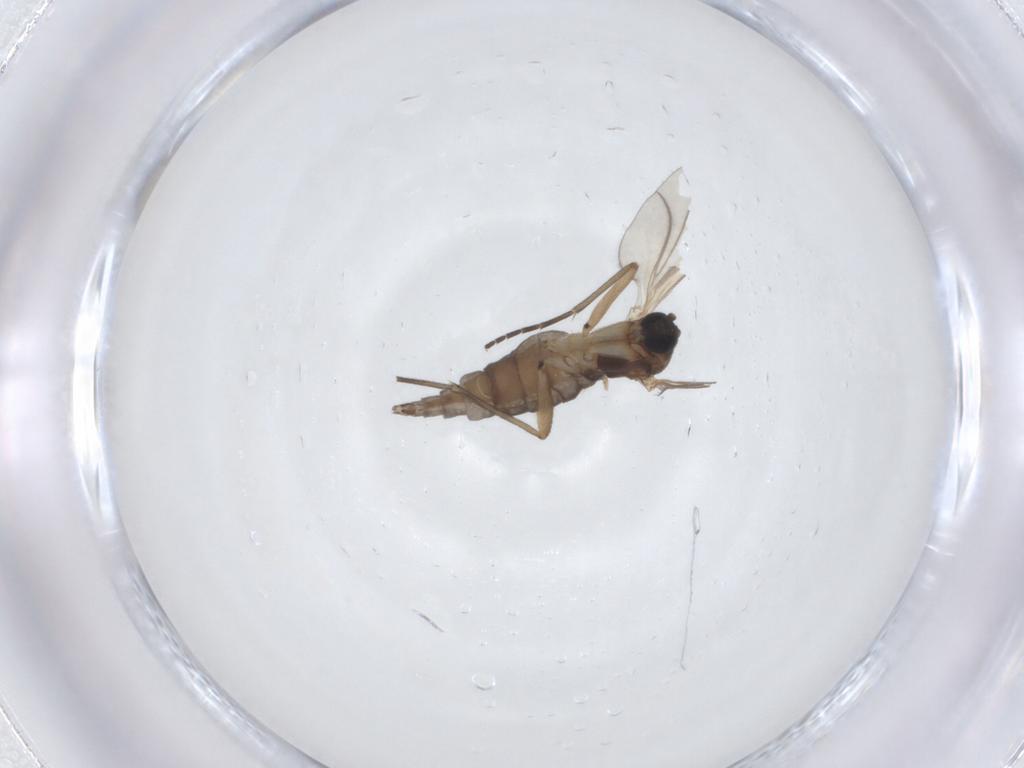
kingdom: Animalia
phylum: Arthropoda
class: Insecta
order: Diptera
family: Sciaridae
